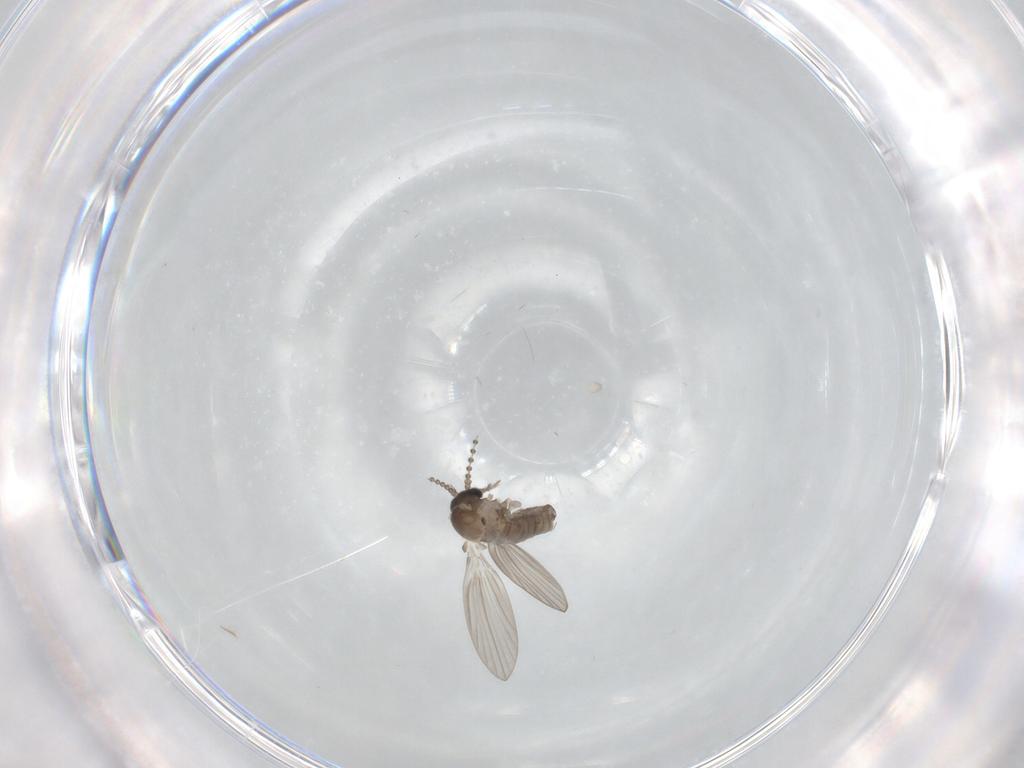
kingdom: Animalia
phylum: Arthropoda
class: Insecta
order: Diptera
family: Psychodidae
